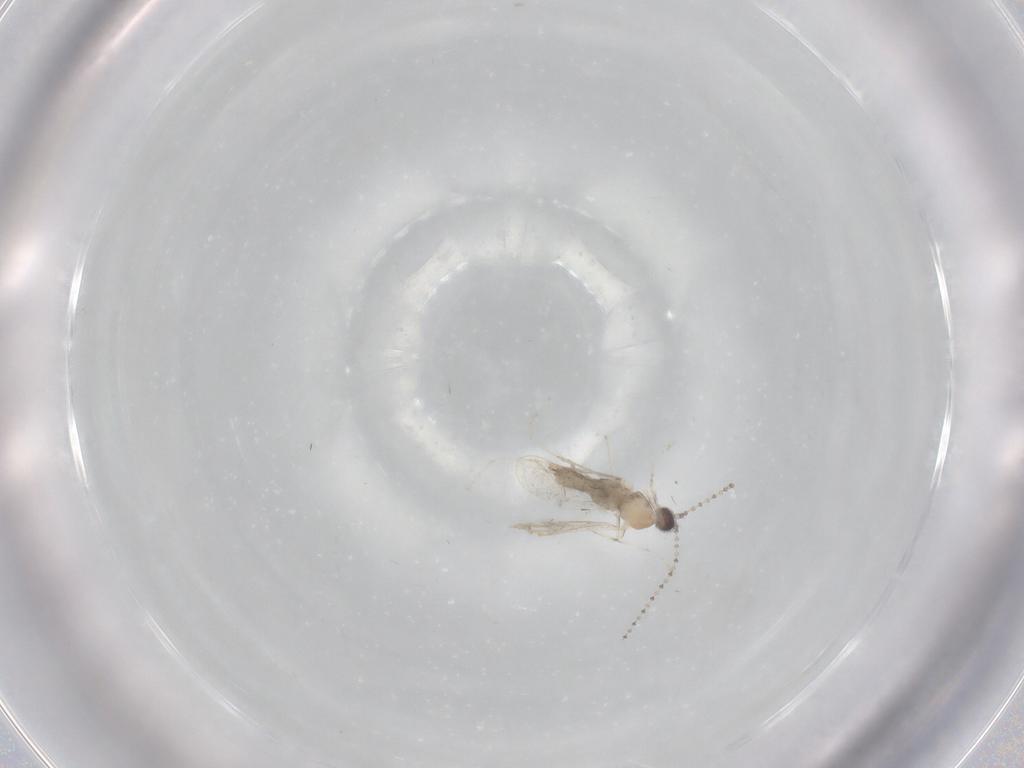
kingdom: Animalia
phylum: Arthropoda
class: Insecta
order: Diptera
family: Cecidomyiidae
